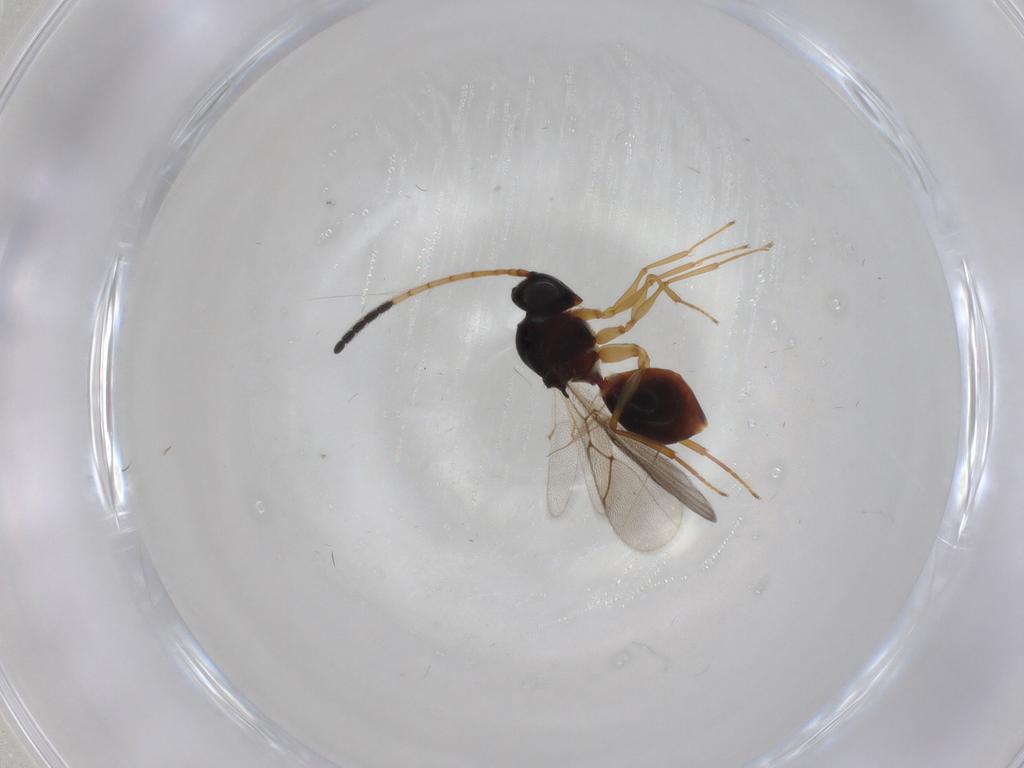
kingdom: Animalia
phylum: Arthropoda
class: Insecta
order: Hymenoptera
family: Figitidae
